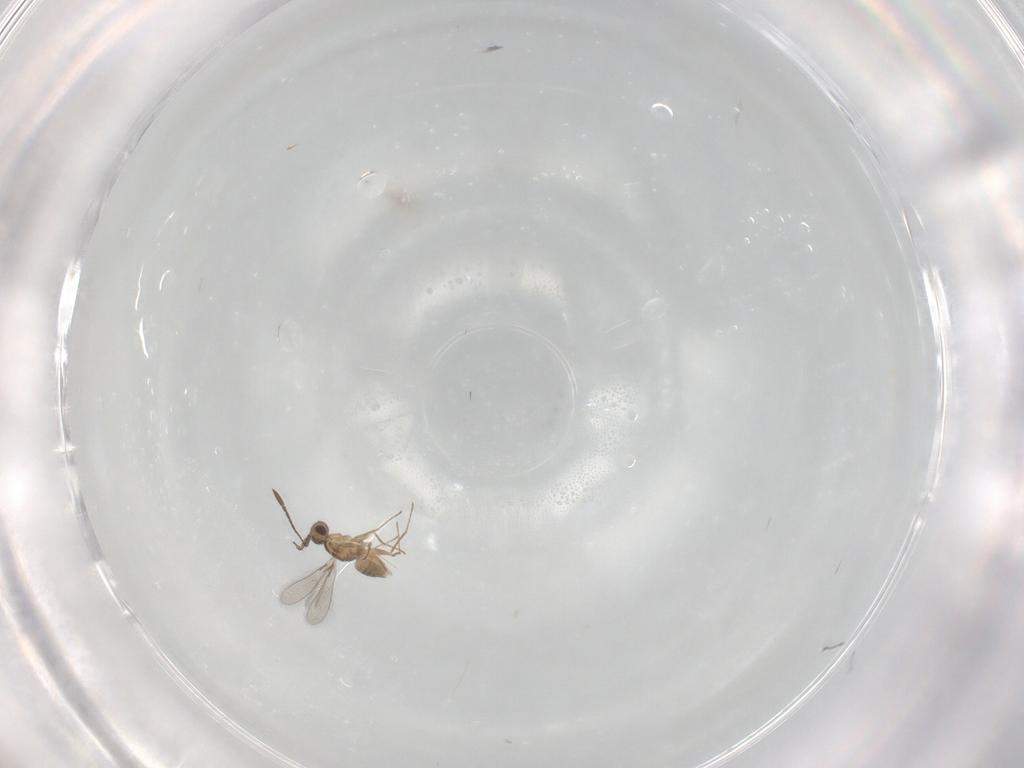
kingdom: Animalia
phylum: Arthropoda
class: Insecta
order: Hymenoptera
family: Mymaridae
